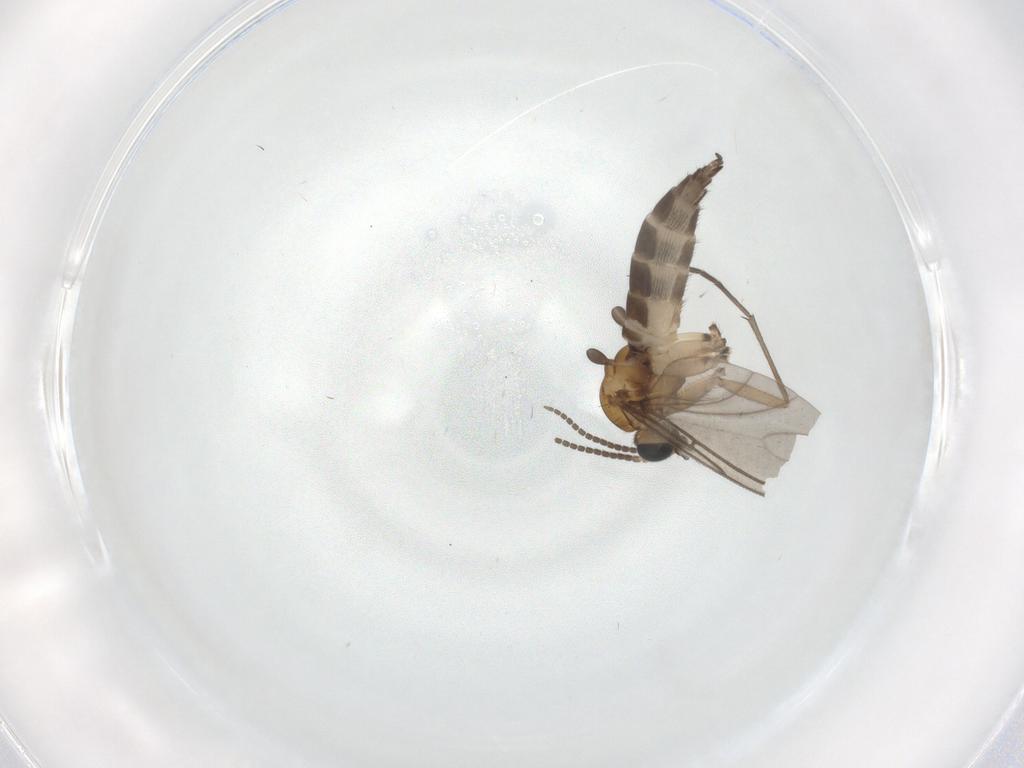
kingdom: Animalia
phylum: Arthropoda
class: Insecta
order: Diptera
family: Sciaridae
